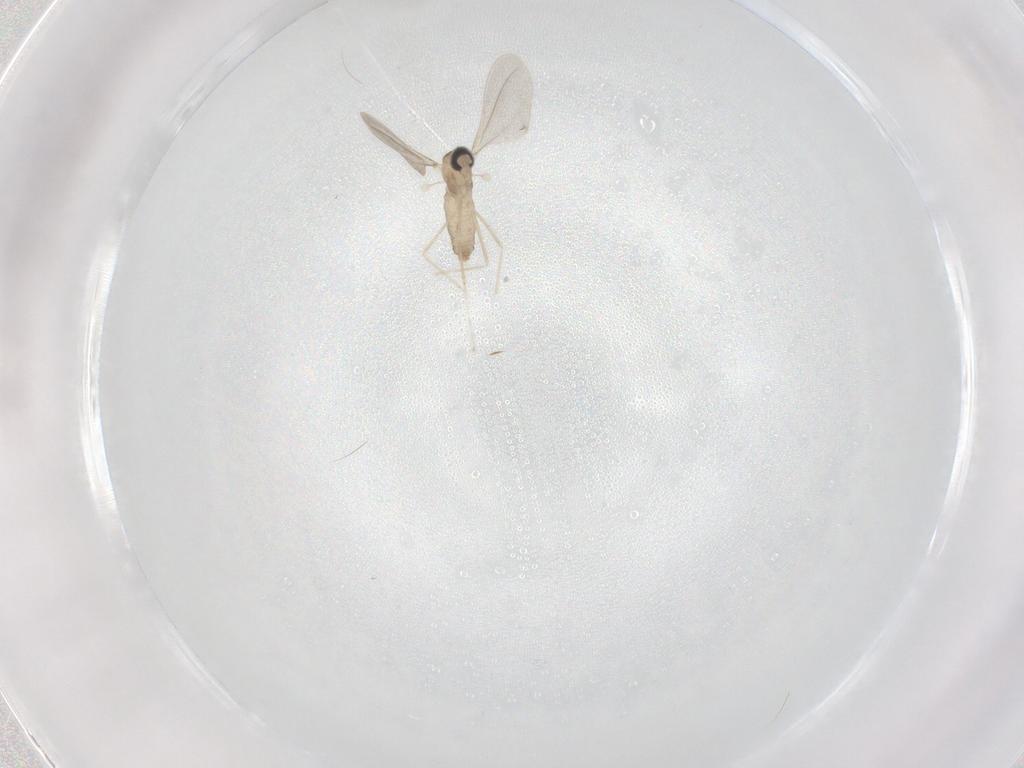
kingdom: Animalia
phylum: Arthropoda
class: Insecta
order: Diptera
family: Cecidomyiidae
